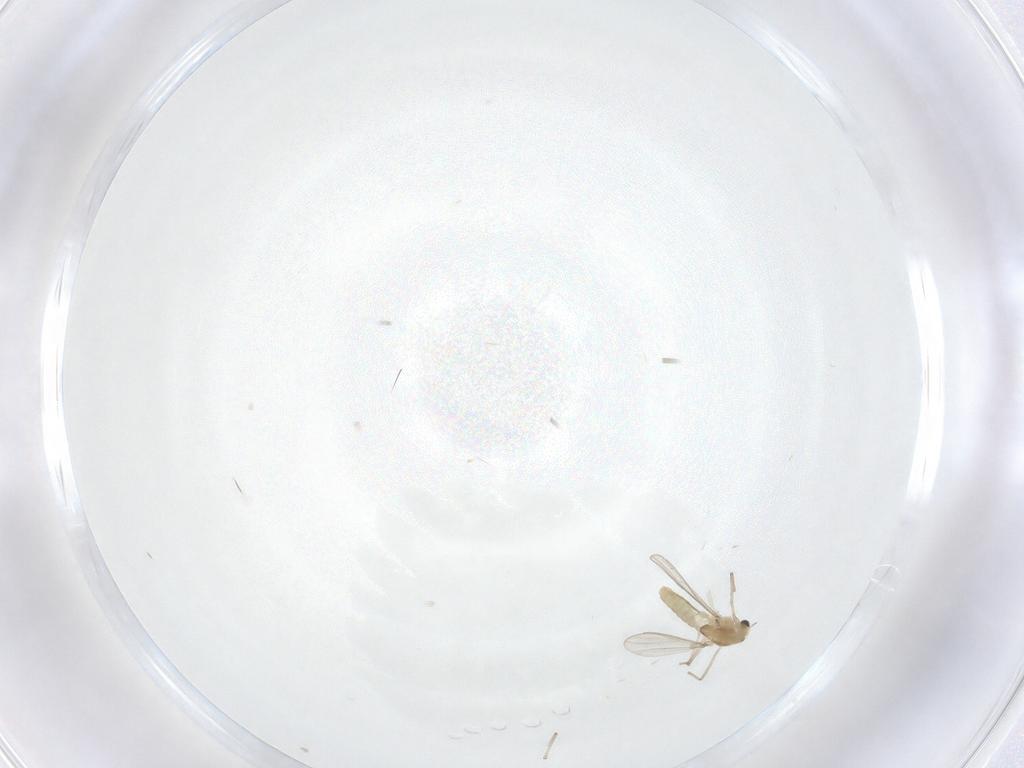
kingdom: Animalia
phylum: Arthropoda
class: Insecta
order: Diptera
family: Chironomidae
